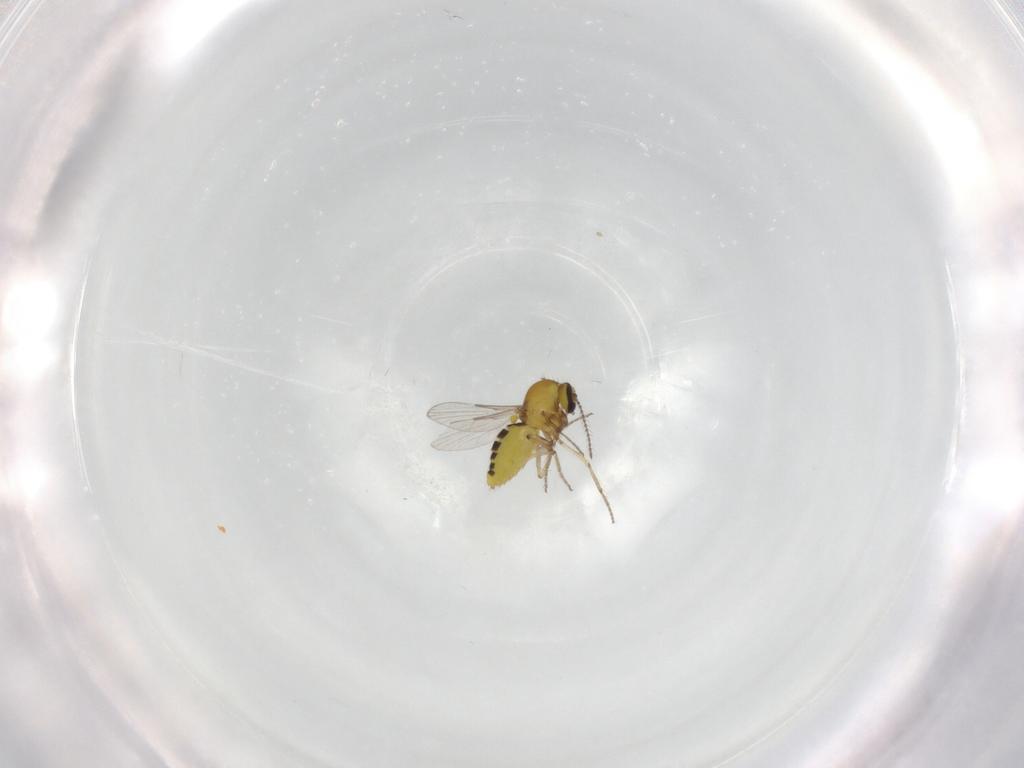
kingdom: Animalia
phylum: Arthropoda
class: Insecta
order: Diptera
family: Ceratopogonidae
